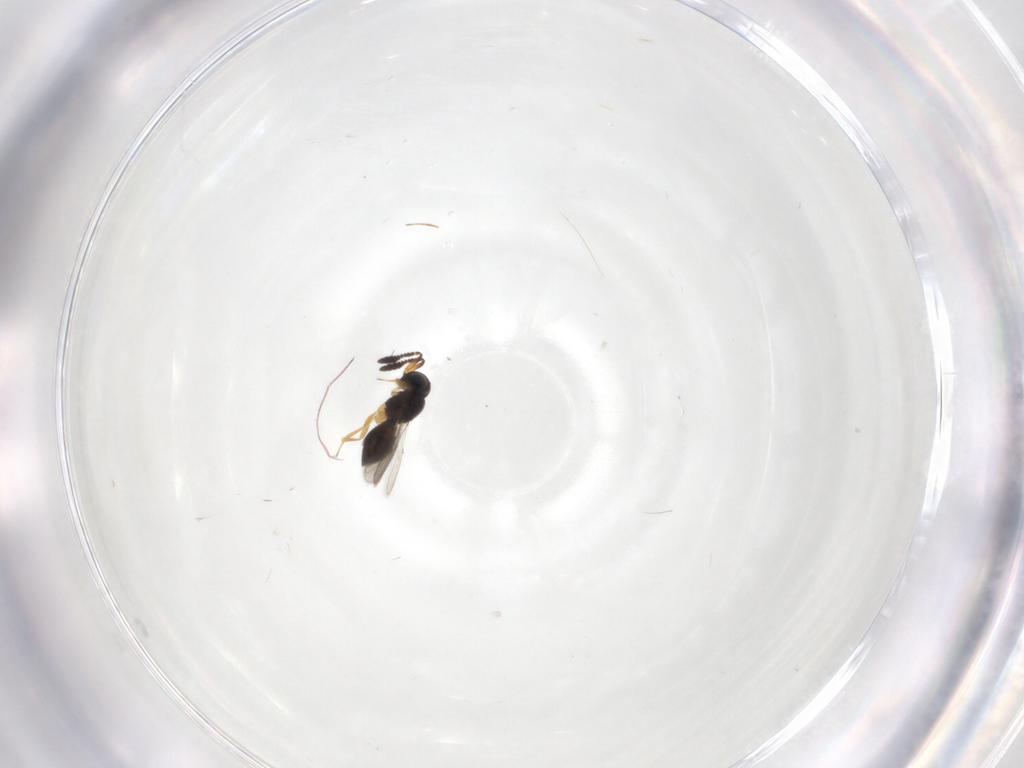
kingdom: Animalia
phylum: Arthropoda
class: Insecta
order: Hymenoptera
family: Scelionidae
